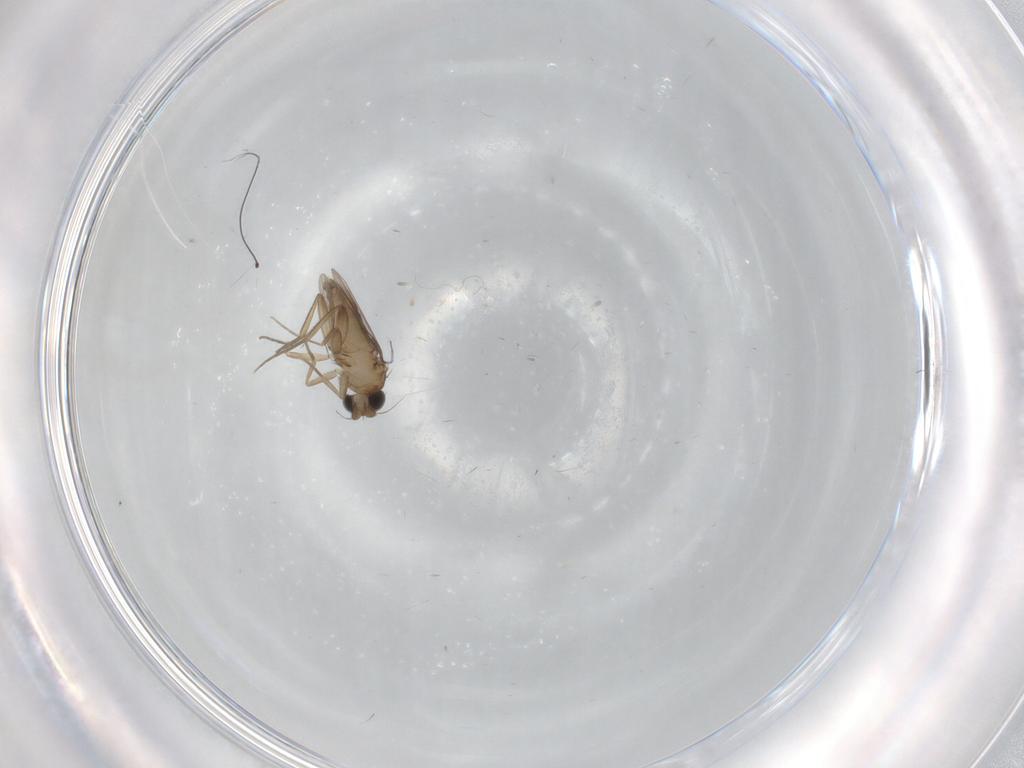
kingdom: Animalia
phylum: Arthropoda
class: Insecta
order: Diptera
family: Phoridae
